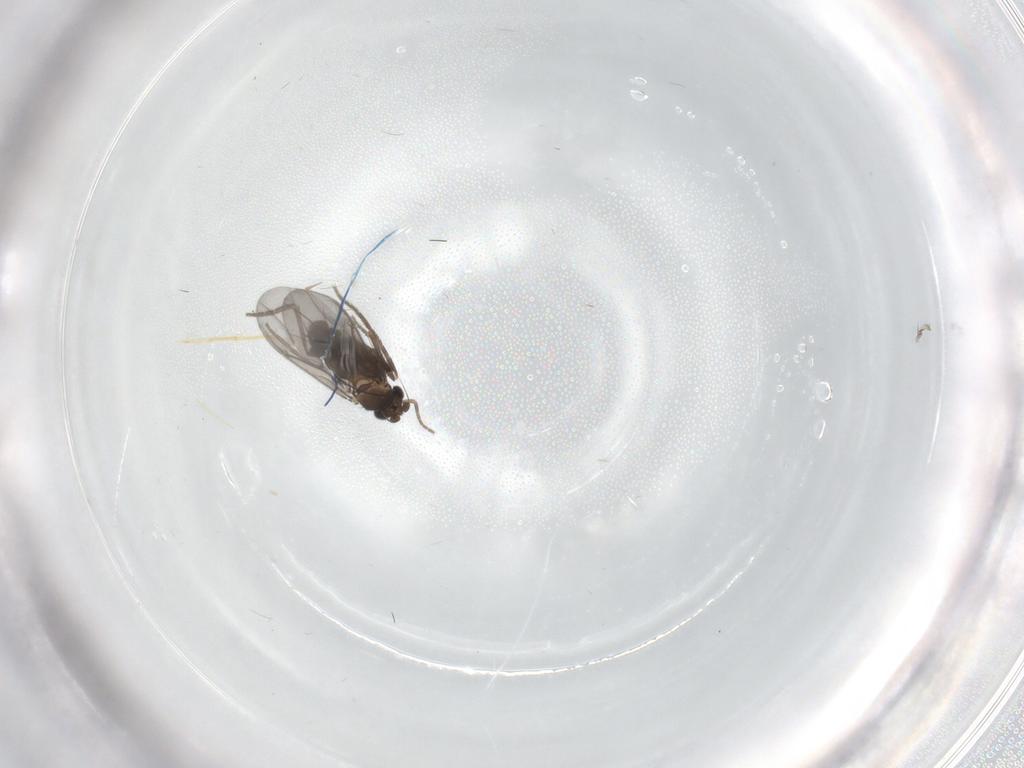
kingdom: Animalia
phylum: Arthropoda
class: Insecta
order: Diptera
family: Phoridae
